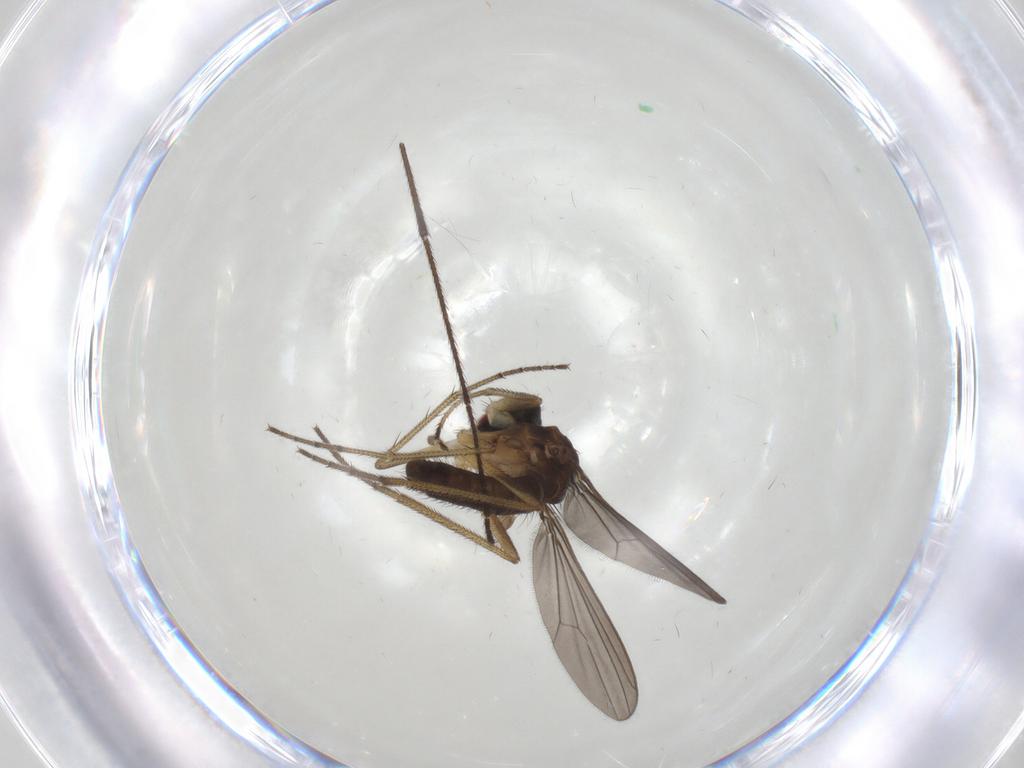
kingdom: Animalia
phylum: Arthropoda
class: Insecta
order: Diptera
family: Dolichopodidae
